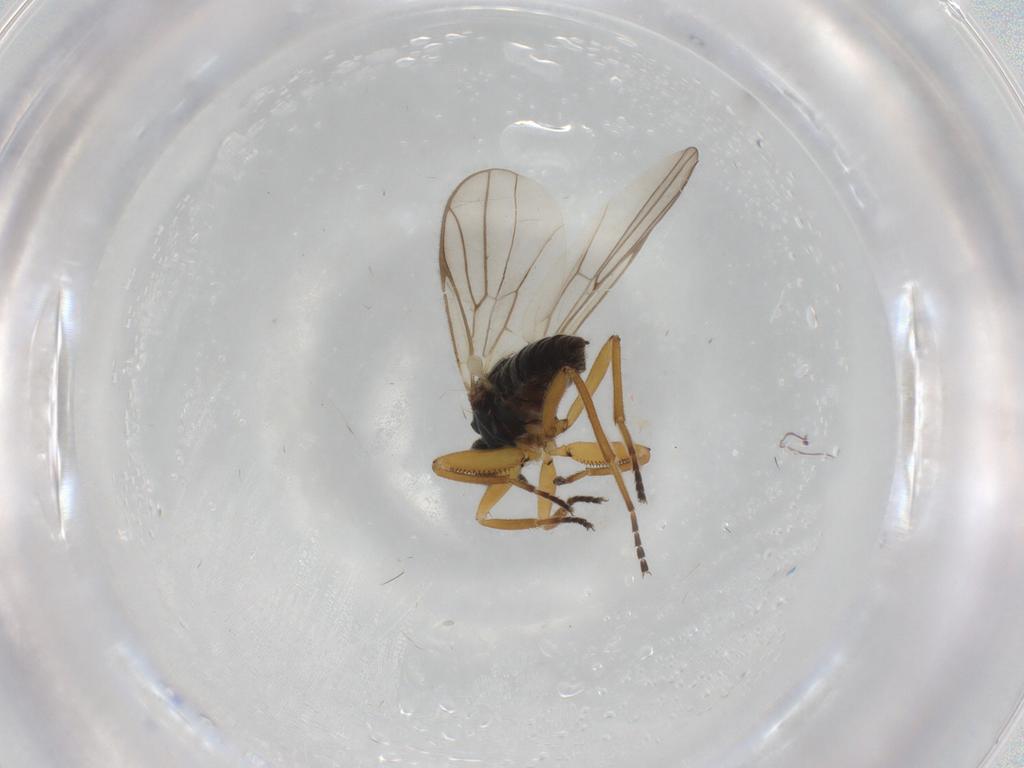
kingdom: Animalia
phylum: Arthropoda
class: Insecta
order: Diptera
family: Hybotidae
